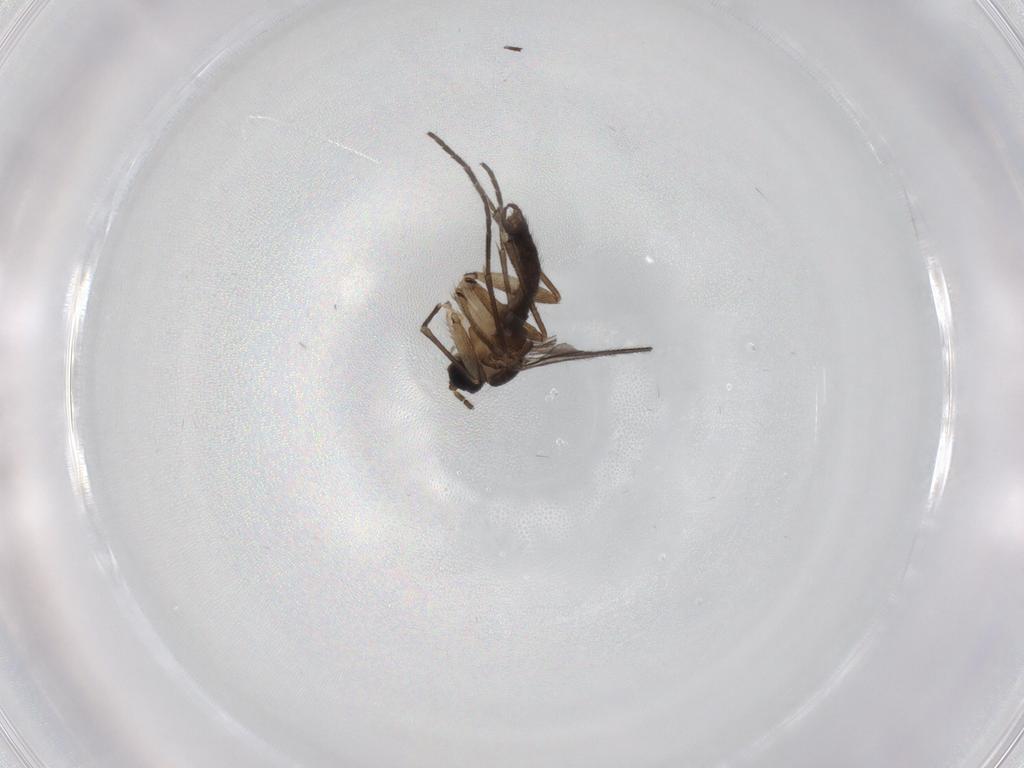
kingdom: Animalia
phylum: Arthropoda
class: Insecta
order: Diptera
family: Sciaridae
